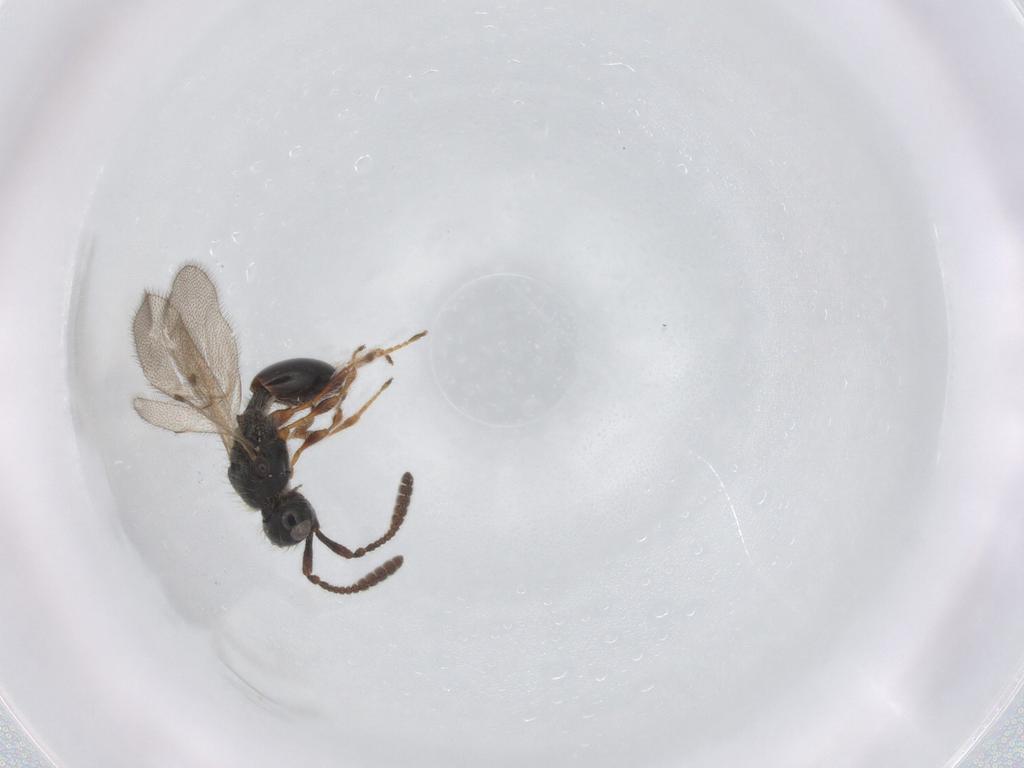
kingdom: Animalia
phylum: Arthropoda
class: Insecta
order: Hymenoptera
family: Diapriidae
